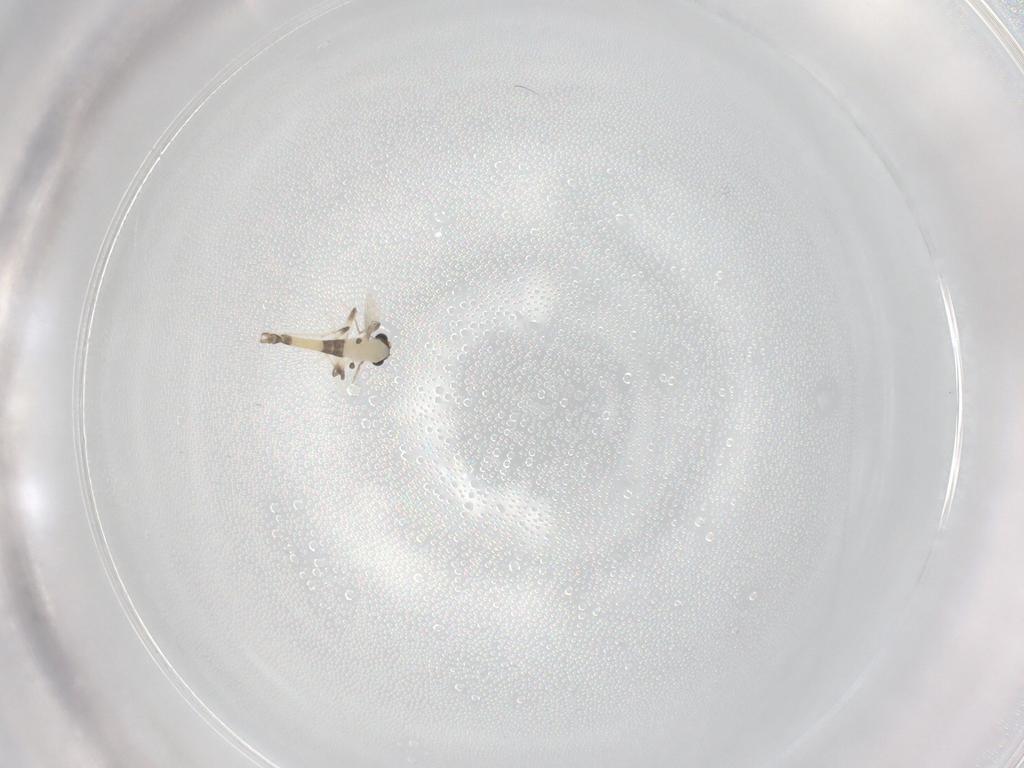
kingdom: Animalia
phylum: Arthropoda
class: Insecta
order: Diptera
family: Chironomidae
